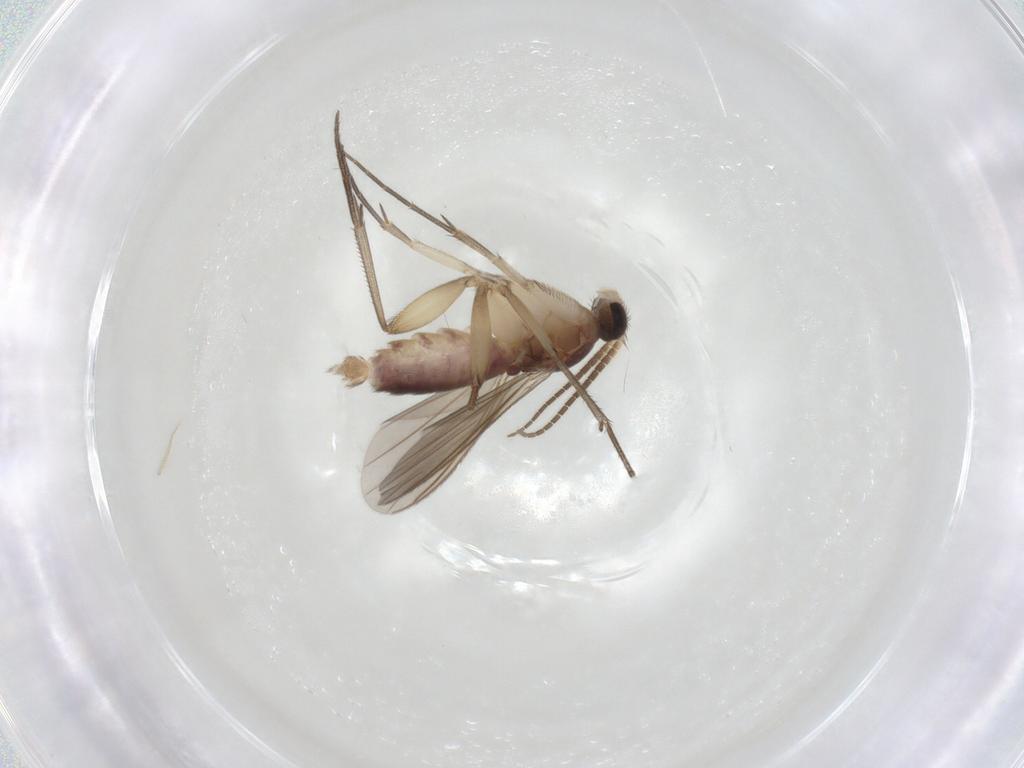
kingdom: Animalia
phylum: Arthropoda
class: Insecta
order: Diptera
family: Mycetophilidae
